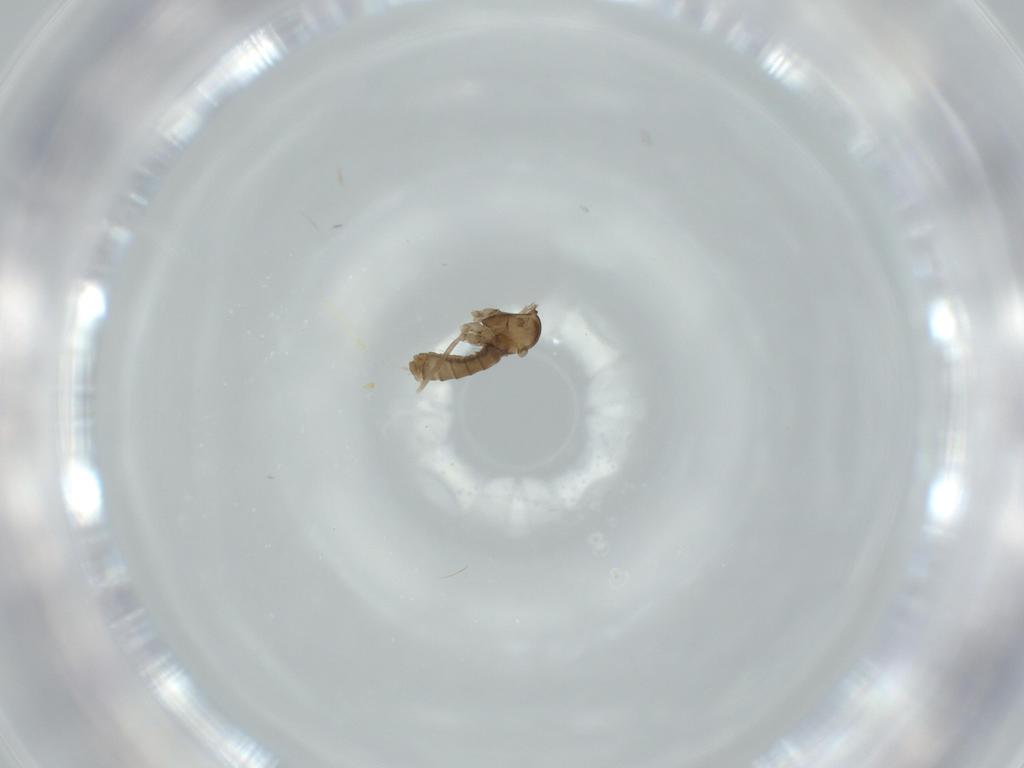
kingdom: Animalia
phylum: Arthropoda
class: Insecta
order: Diptera
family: Cecidomyiidae
